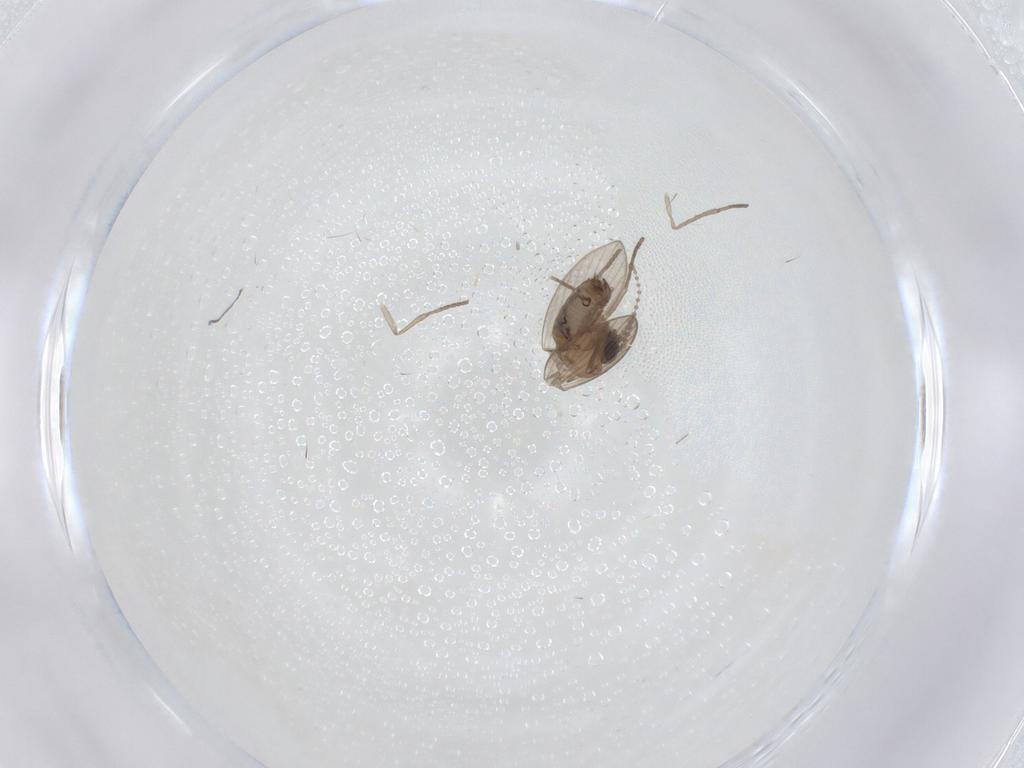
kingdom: Animalia
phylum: Arthropoda
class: Insecta
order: Diptera
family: Psychodidae
